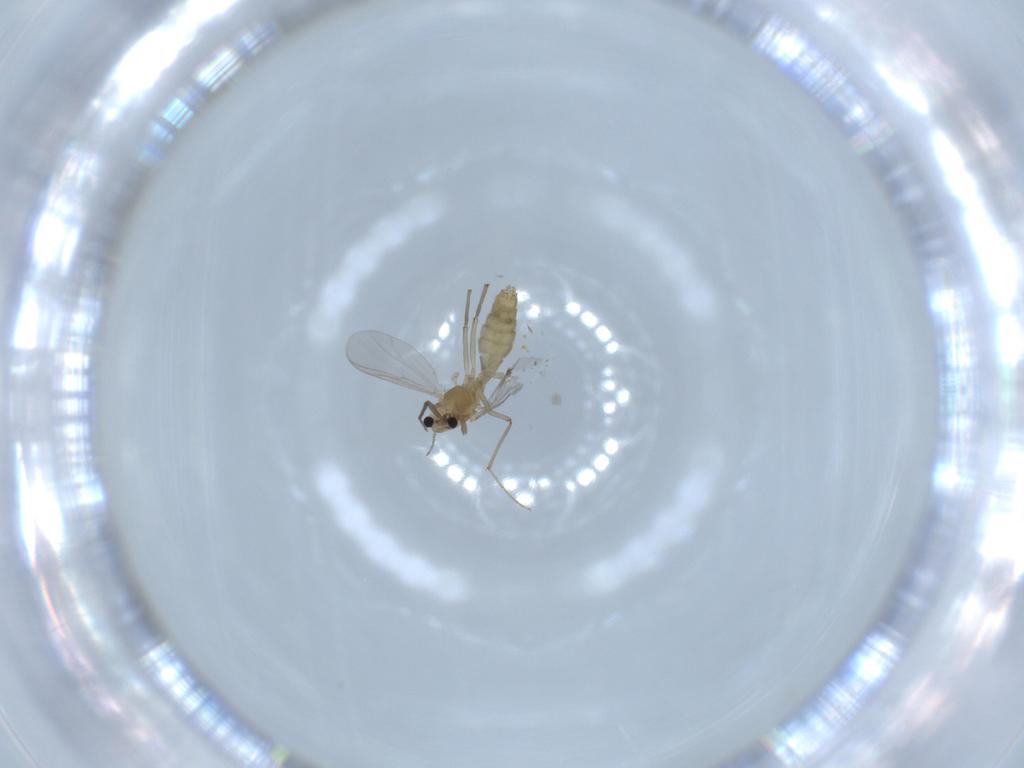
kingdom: Animalia
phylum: Arthropoda
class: Insecta
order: Diptera
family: Chironomidae
